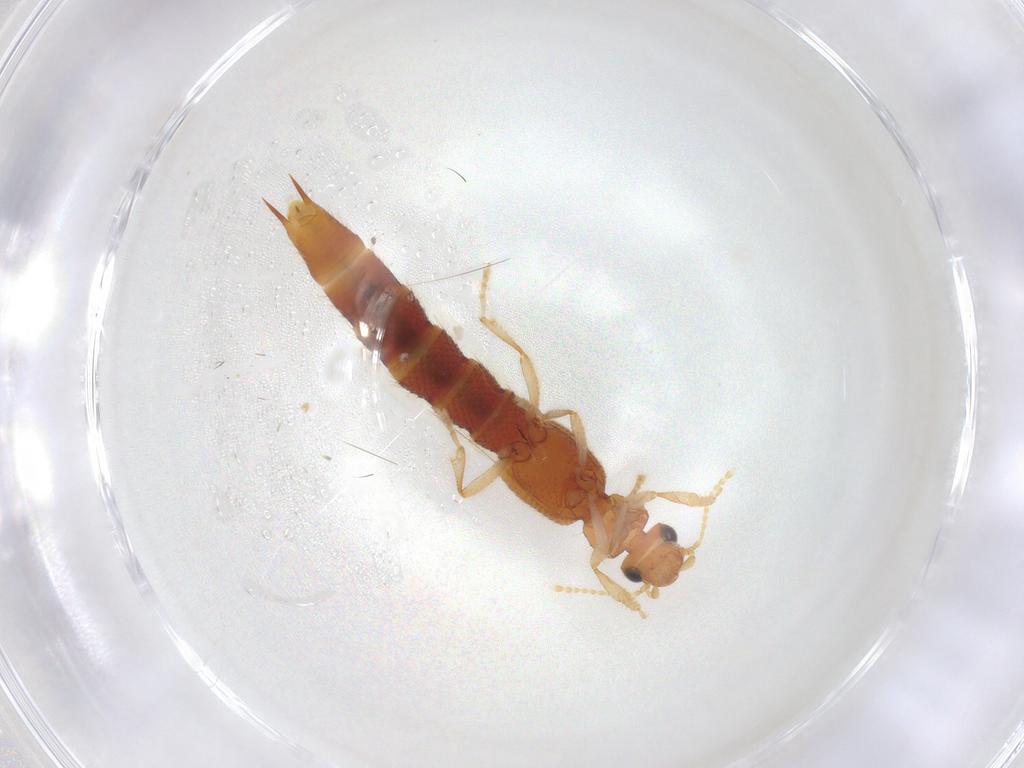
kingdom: Animalia
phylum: Arthropoda
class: Insecta
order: Coleoptera
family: Staphylinidae
